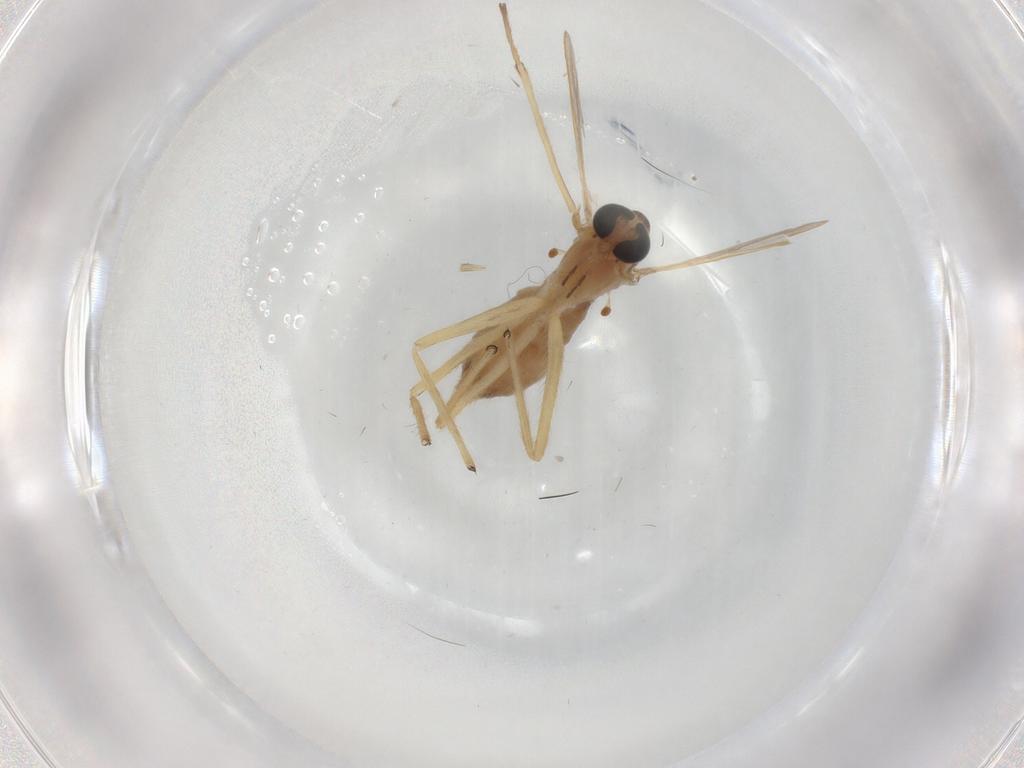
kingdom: Animalia
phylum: Arthropoda
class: Insecta
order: Diptera
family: Chironomidae
